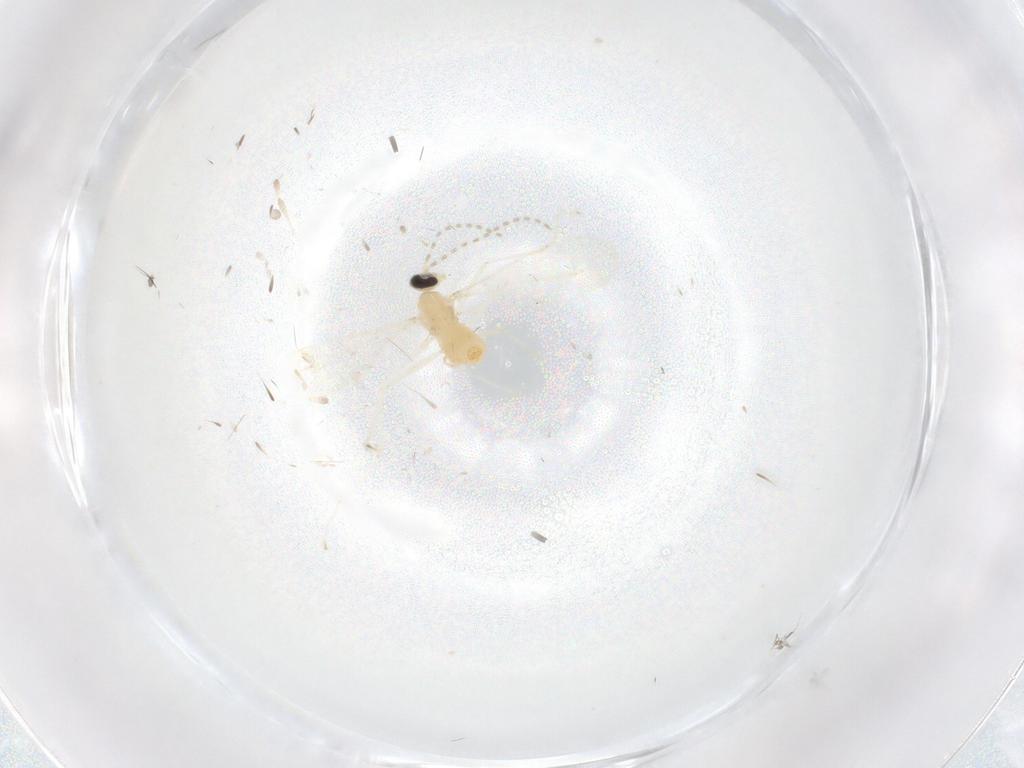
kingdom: Animalia
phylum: Arthropoda
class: Insecta
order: Diptera
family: Cecidomyiidae
